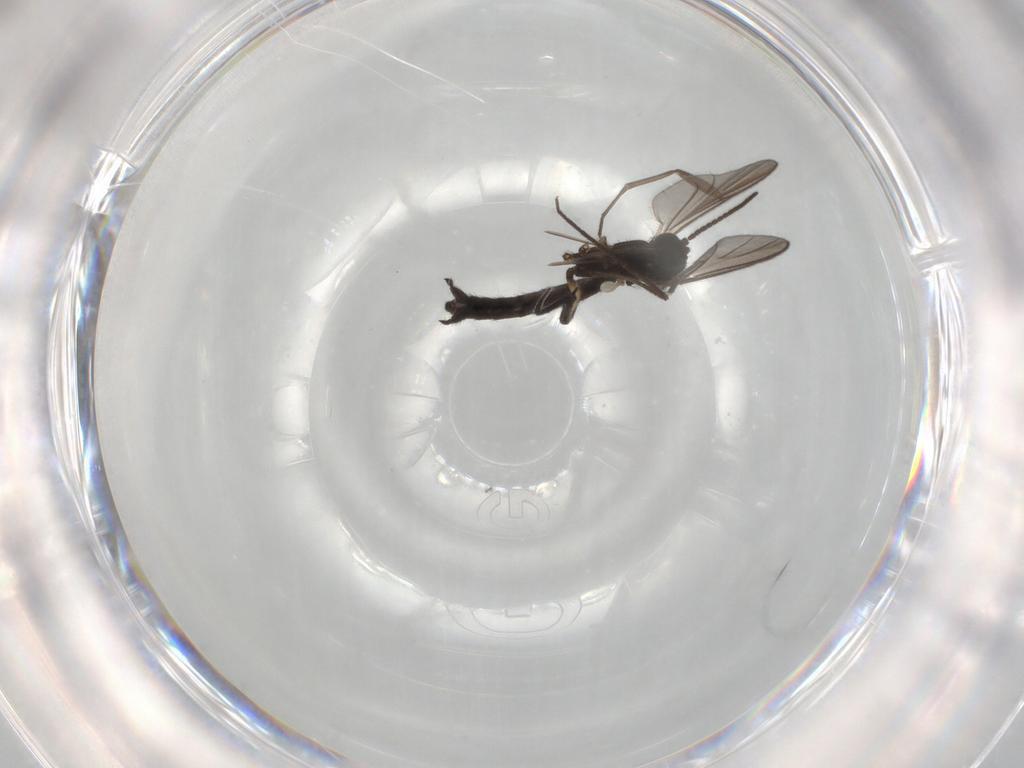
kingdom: Animalia
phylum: Arthropoda
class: Insecta
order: Diptera
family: Keroplatidae
